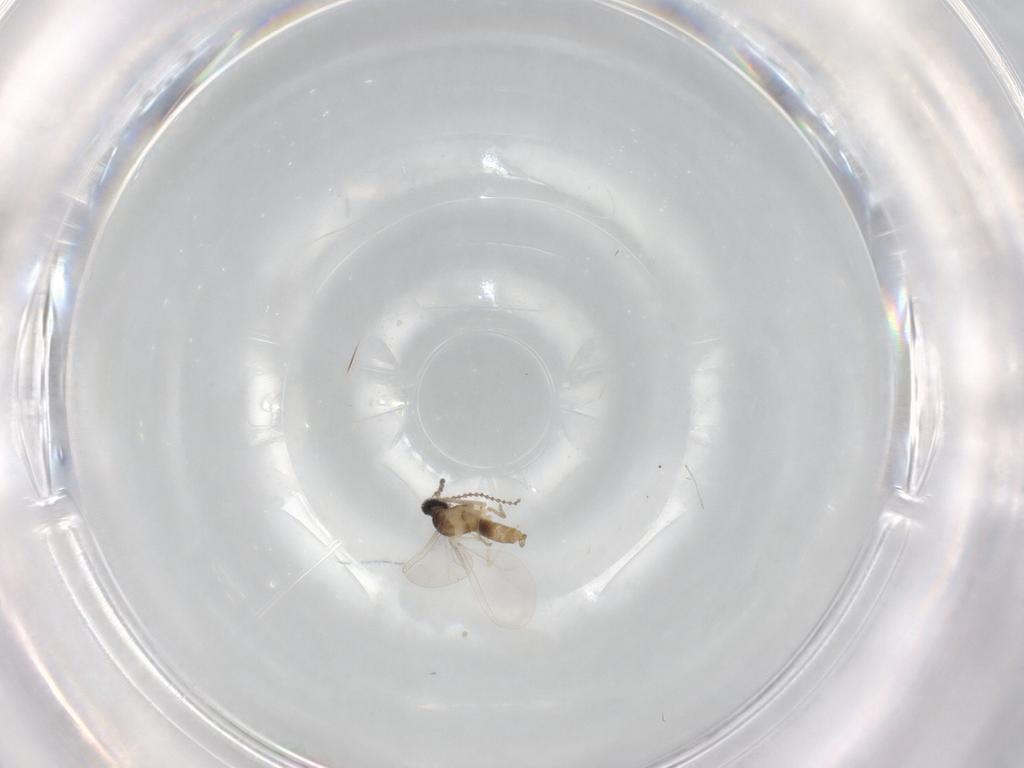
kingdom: Animalia
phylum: Arthropoda
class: Insecta
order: Diptera
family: Cecidomyiidae
